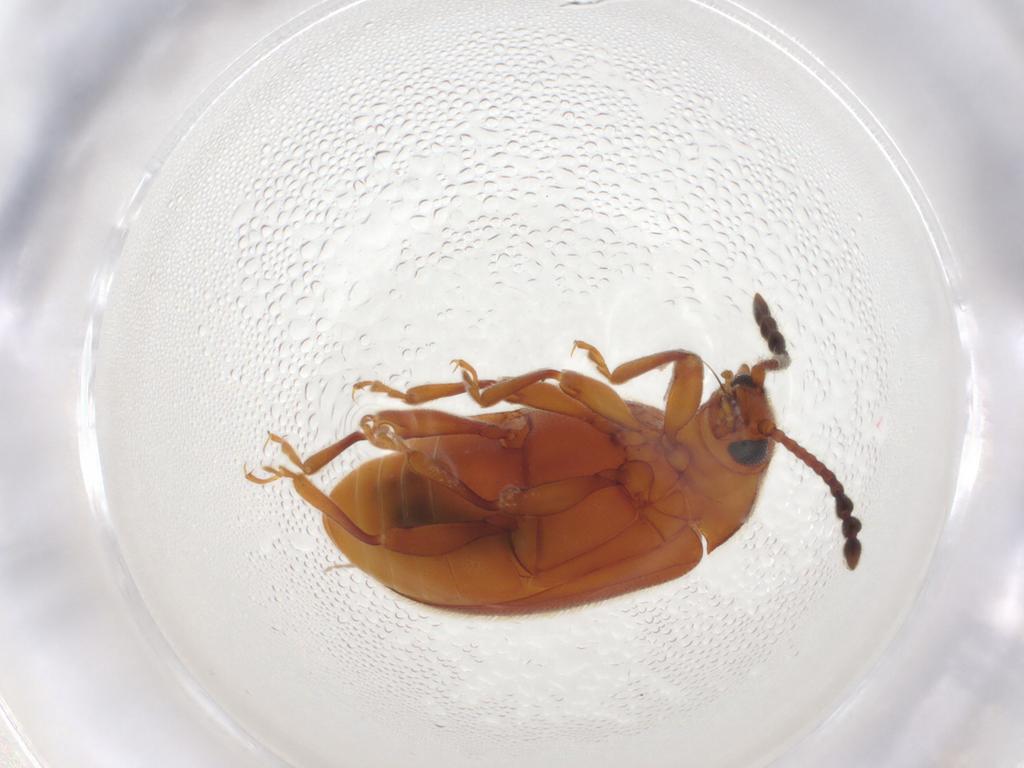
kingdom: Animalia
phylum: Arthropoda
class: Insecta
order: Coleoptera
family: Endomychidae
